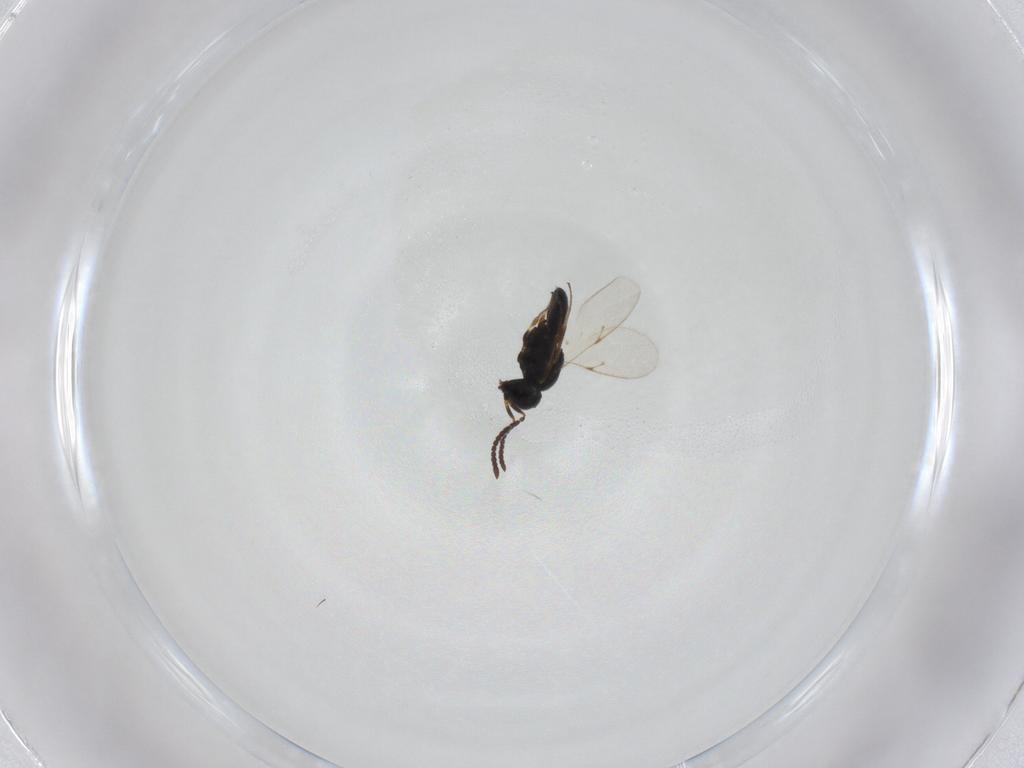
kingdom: Animalia
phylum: Arthropoda
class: Insecta
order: Hymenoptera
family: Scelionidae
